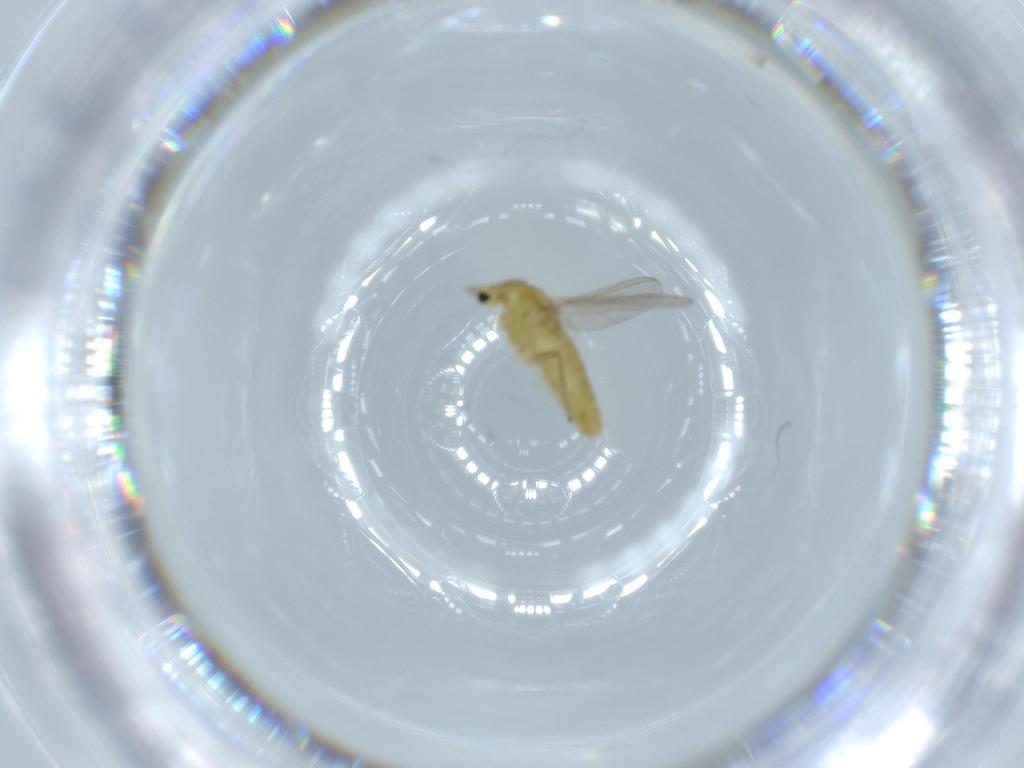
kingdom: Animalia
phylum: Arthropoda
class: Insecta
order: Diptera
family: Chironomidae
